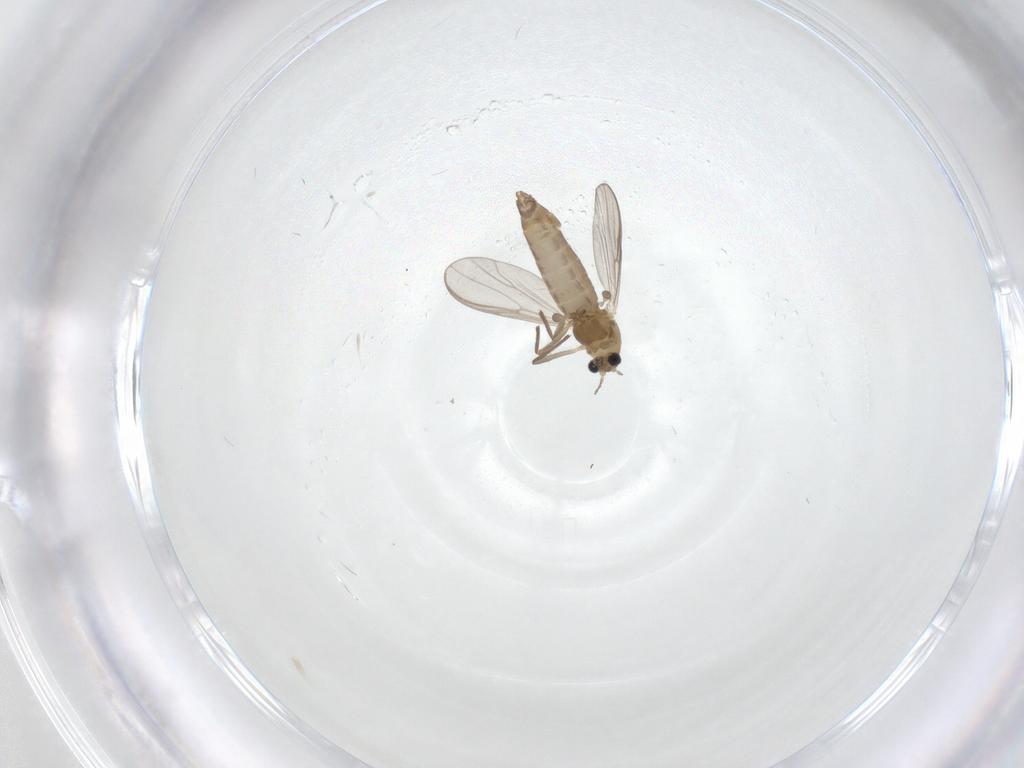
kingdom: Animalia
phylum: Arthropoda
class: Insecta
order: Diptera
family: Chironomidae
